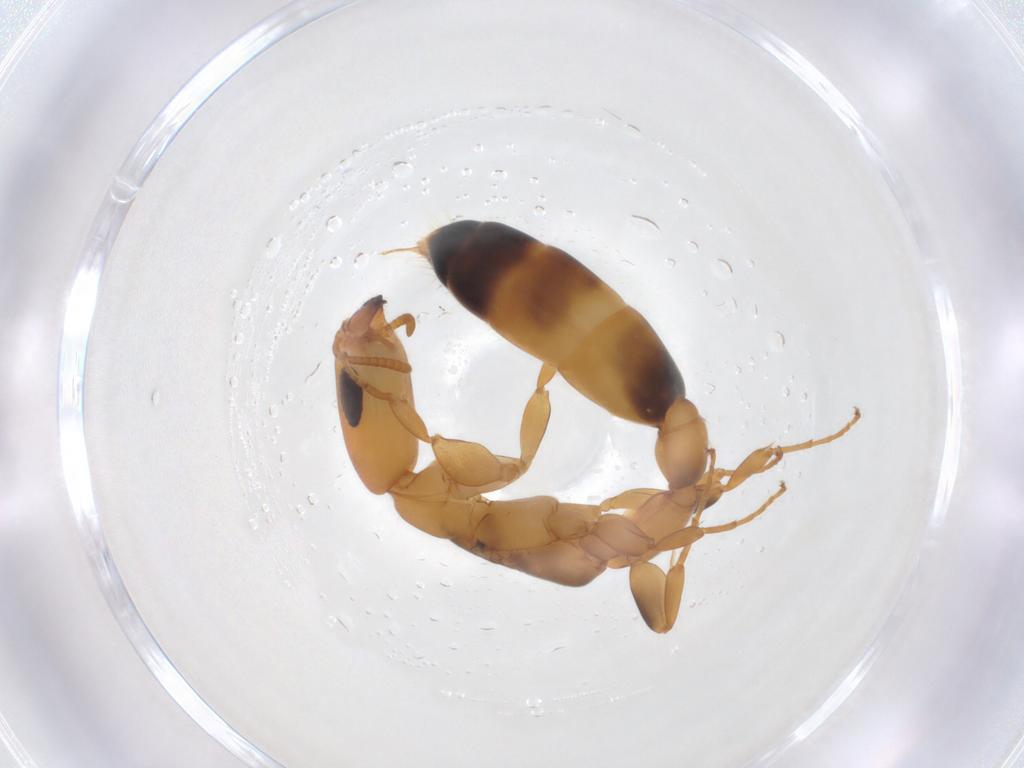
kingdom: Animalia
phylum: Arthropoda
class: Insecta
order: Hymenoptera
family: Formicidae
